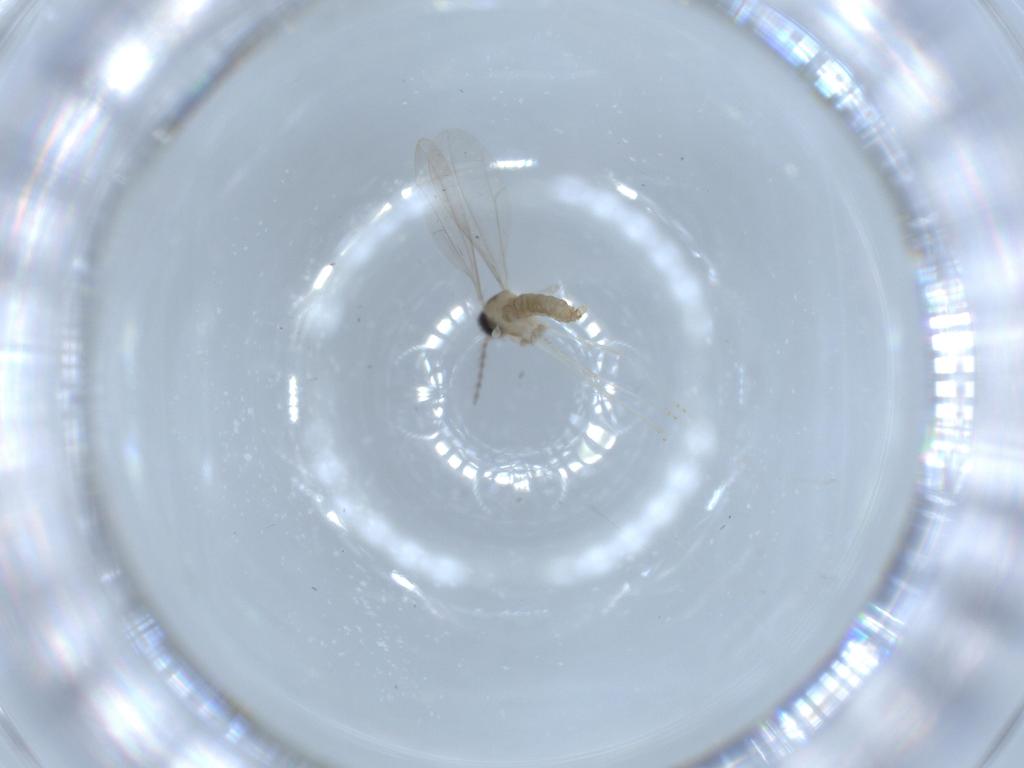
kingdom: Animalia
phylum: Arthropoda
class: Insecta
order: Diptera
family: Cecidomyiidae
